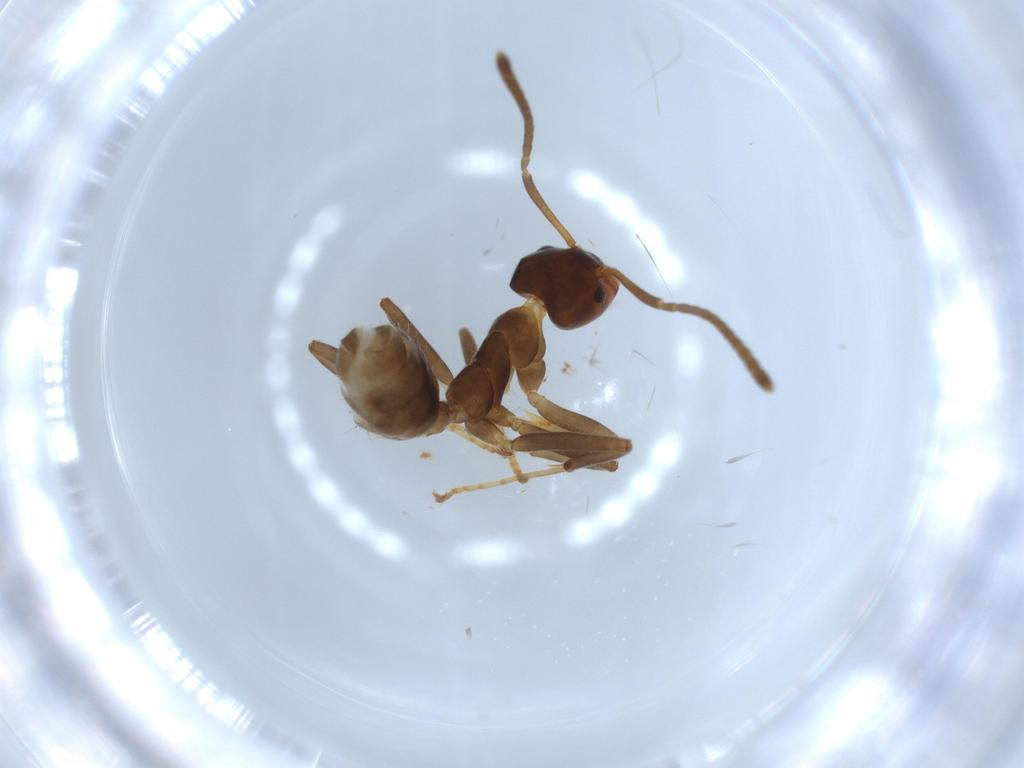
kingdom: Animalia
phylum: Arthropoda
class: Insecta
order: Hymenoptera
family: Formicidae
